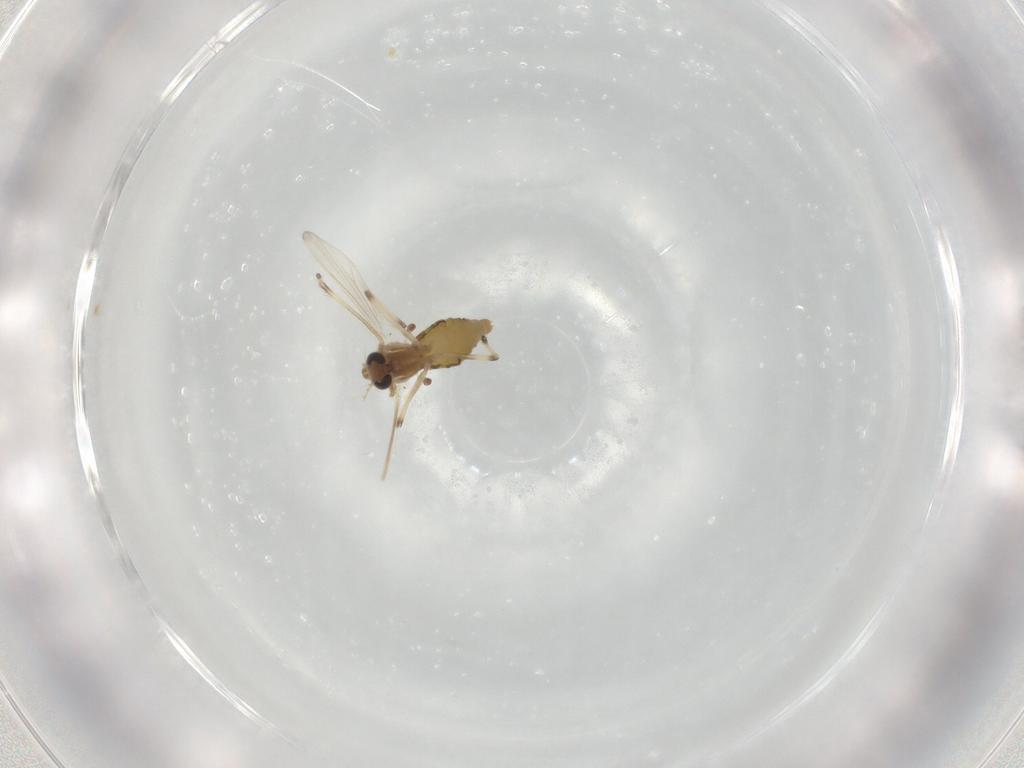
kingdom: Animalia
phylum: Arthropoda
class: Insecta
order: Diptera
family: Chironomidae
